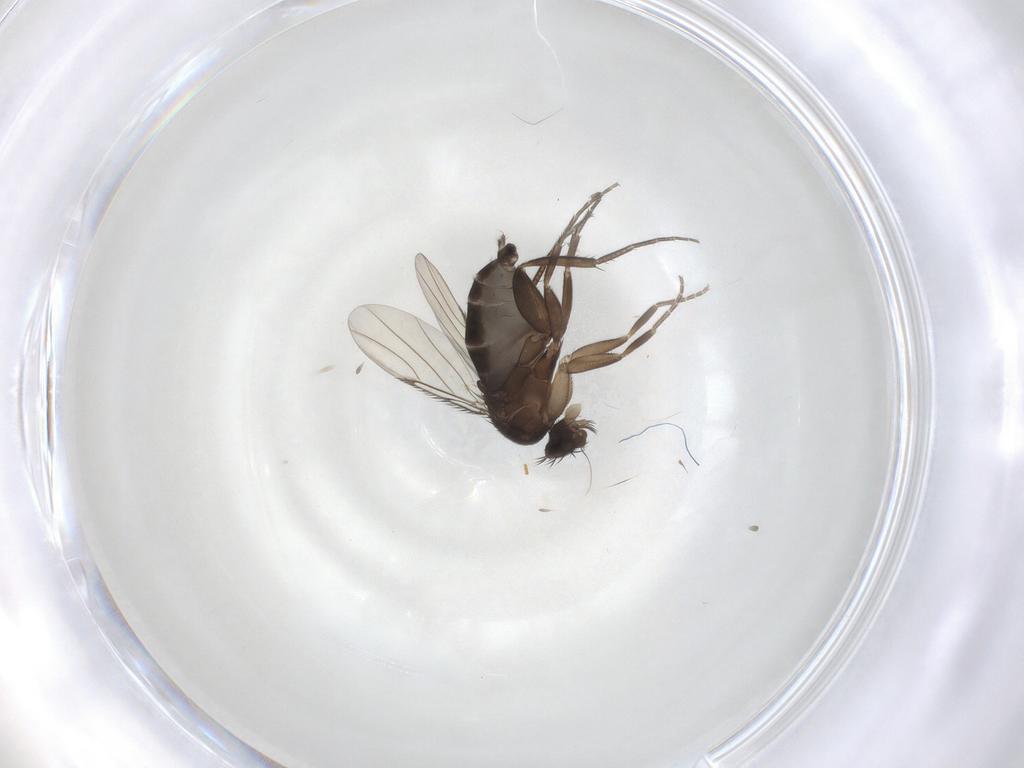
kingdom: Animalia
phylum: Arthropoda
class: Insecta
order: Diptera
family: Phoridae
